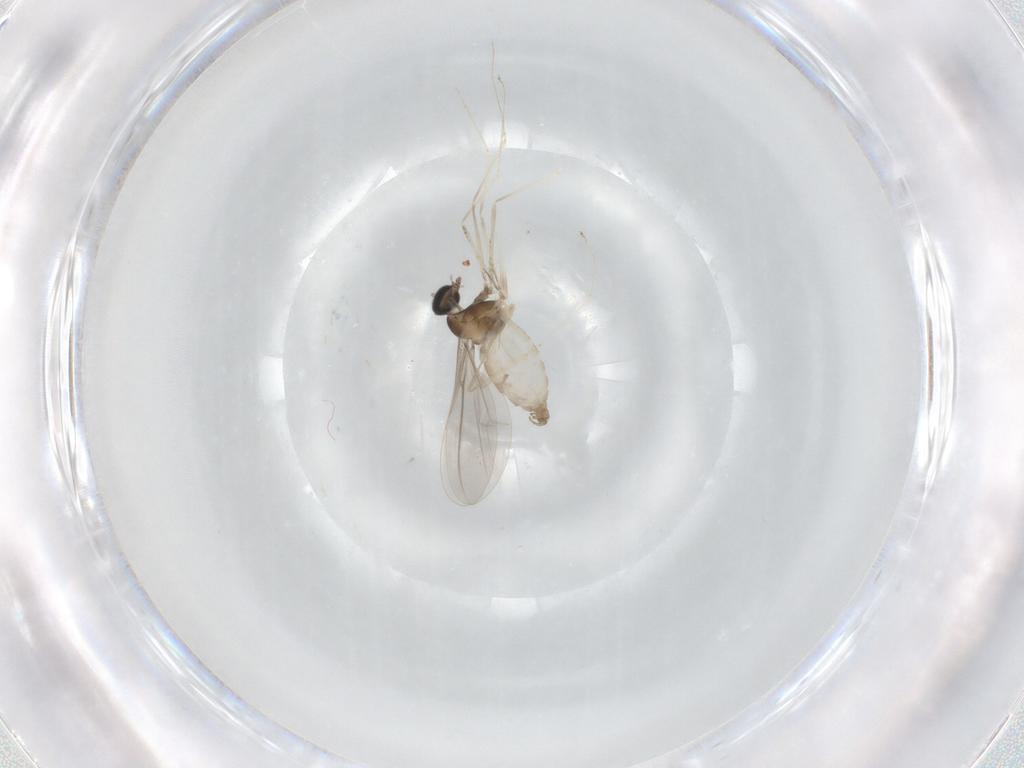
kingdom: Animalia
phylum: Arthropoda
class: Insecta
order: Diptera
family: Cecidomyiidae
